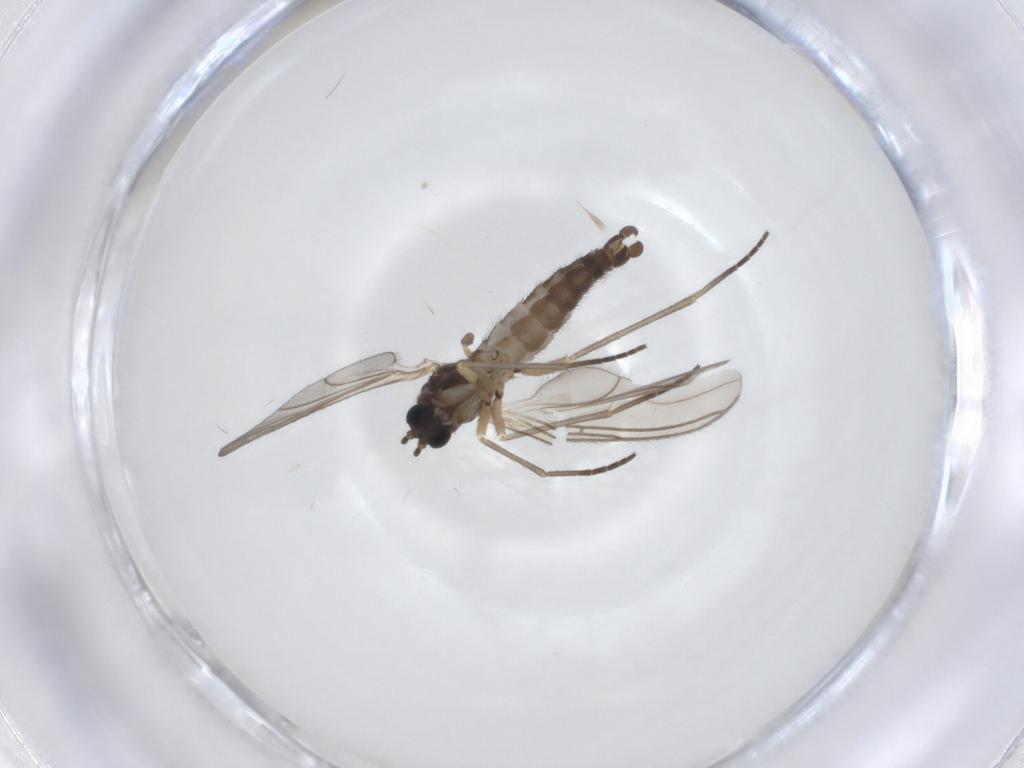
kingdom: Animalia
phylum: Arthropoda
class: Insecta
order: Diptera
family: Sciaridae
